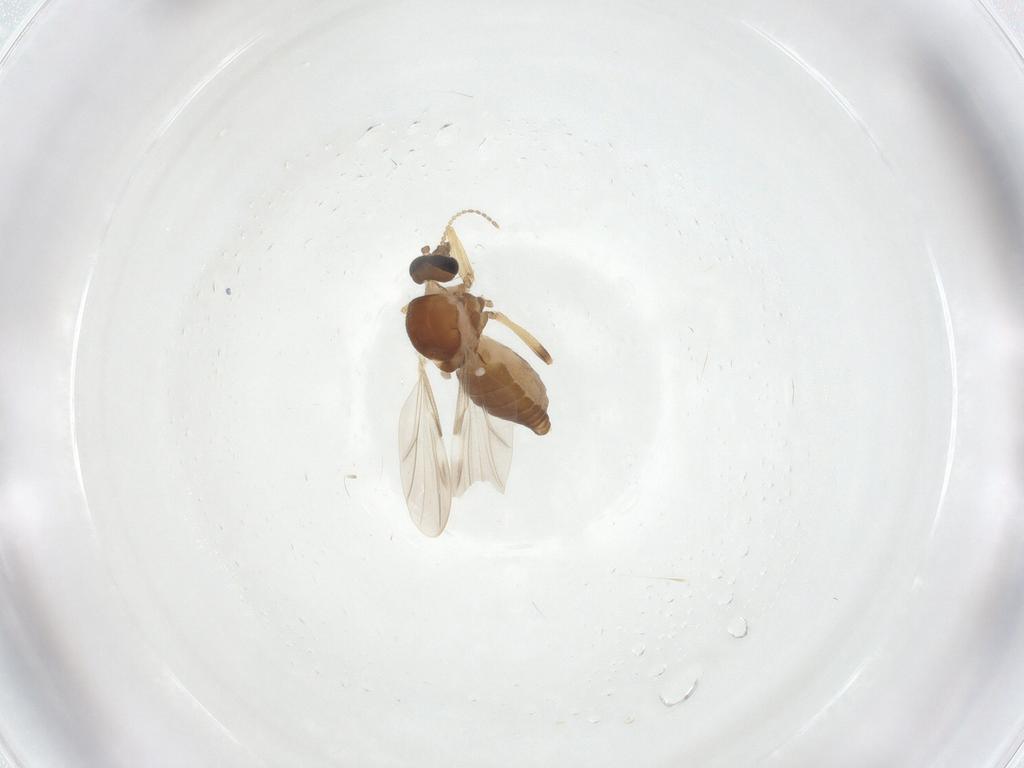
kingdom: Animalia
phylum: Arthropoda
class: Insecta
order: Diptera
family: Ceratopogonidae
